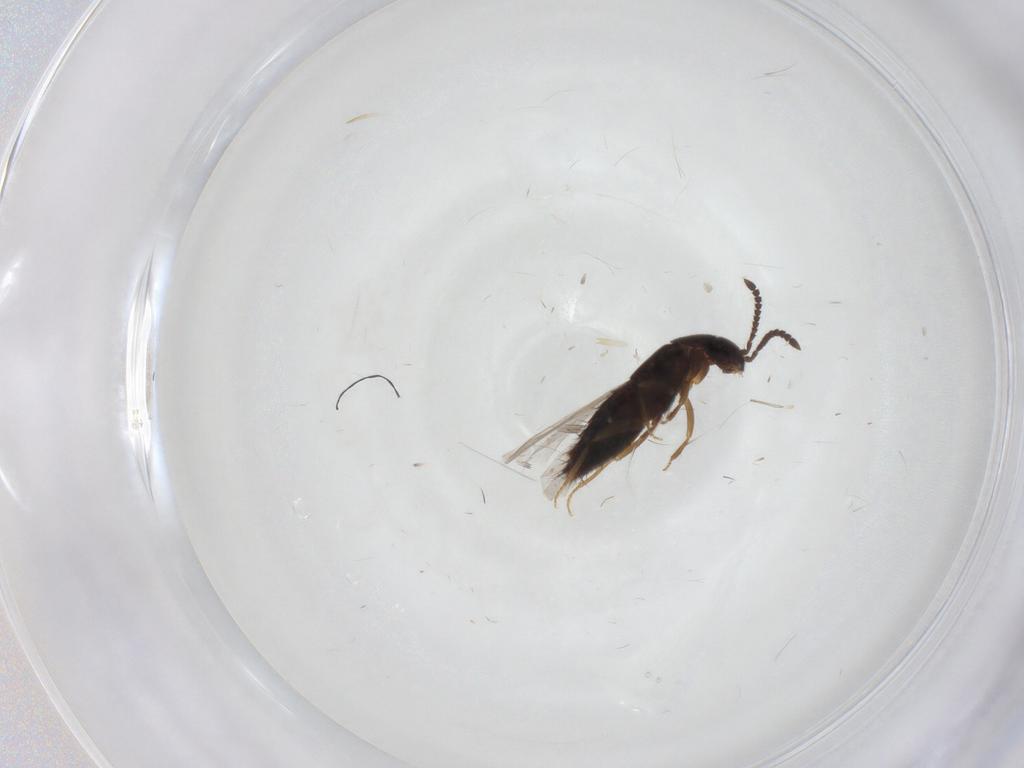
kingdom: Animalia
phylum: Arthropoda
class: Insecta
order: Coleoptera
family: Staphylinidae
